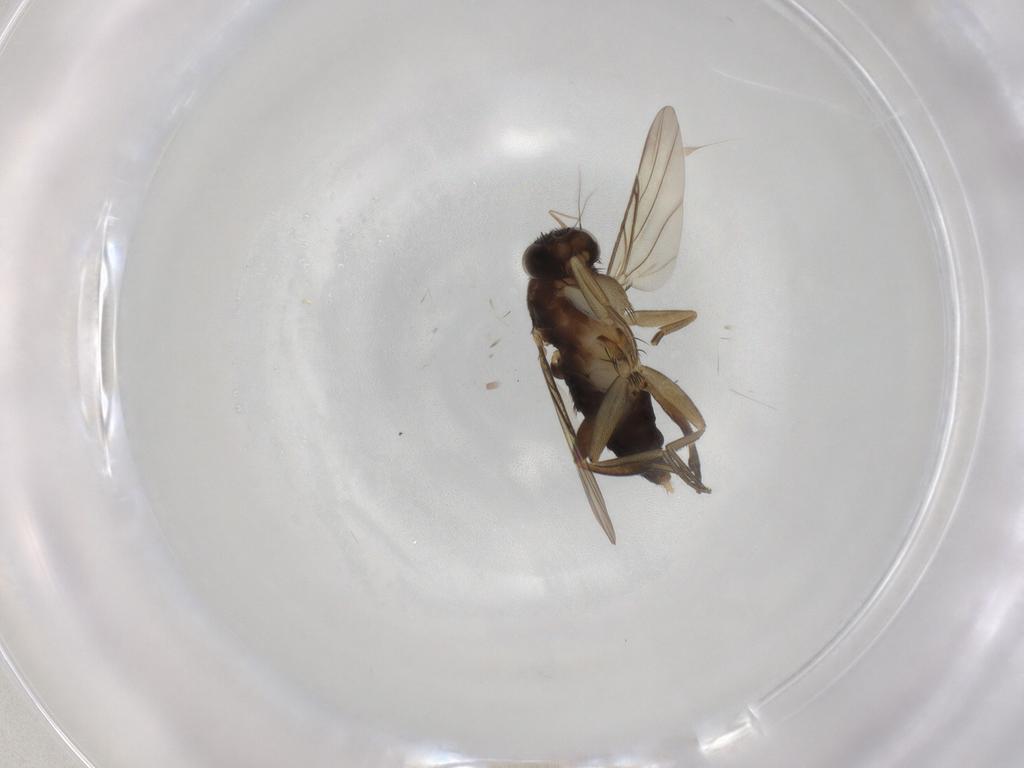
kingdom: Animalia
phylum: Arthropoda
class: Insecta
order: Diptera
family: Phoridae
